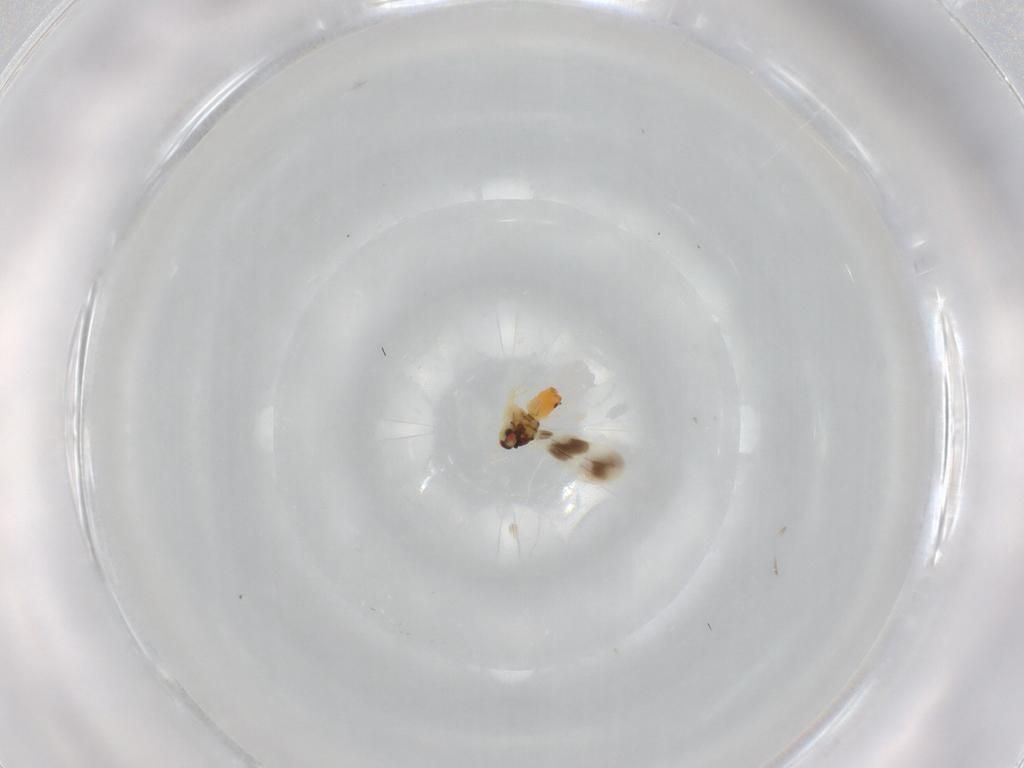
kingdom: Animalia
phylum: Arthropoda
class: Insecta
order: Hemiptera
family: Aleyrodidae
